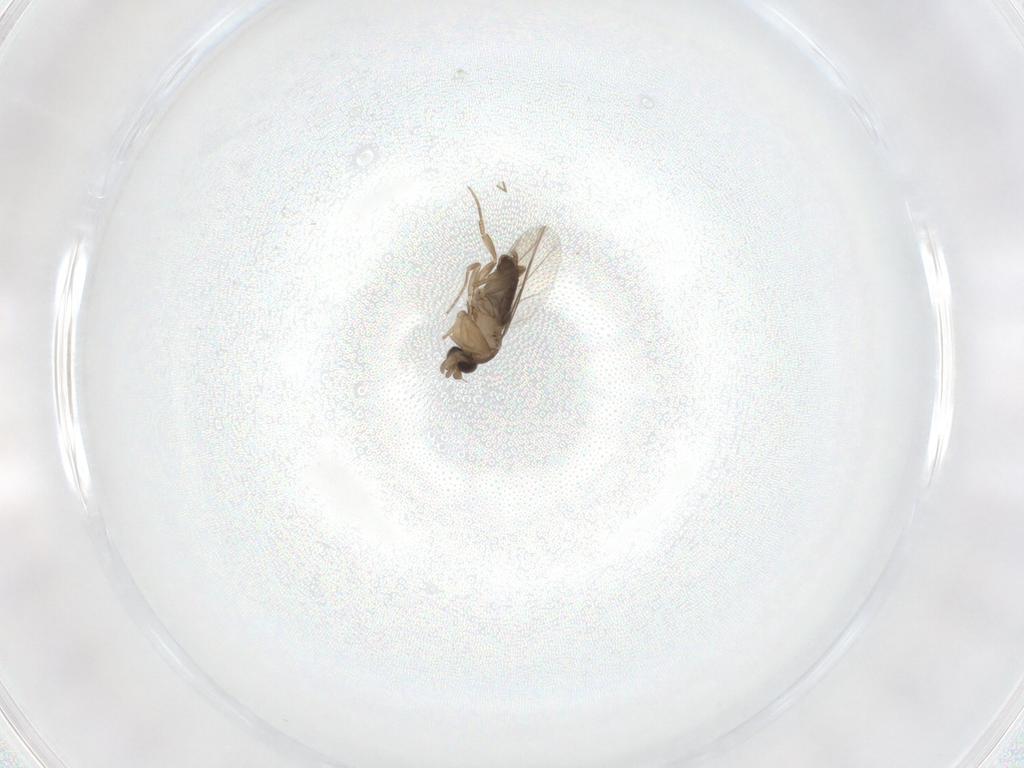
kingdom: Animalia
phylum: Arthropoda
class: Insecta
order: Diptera
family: Phoridae
